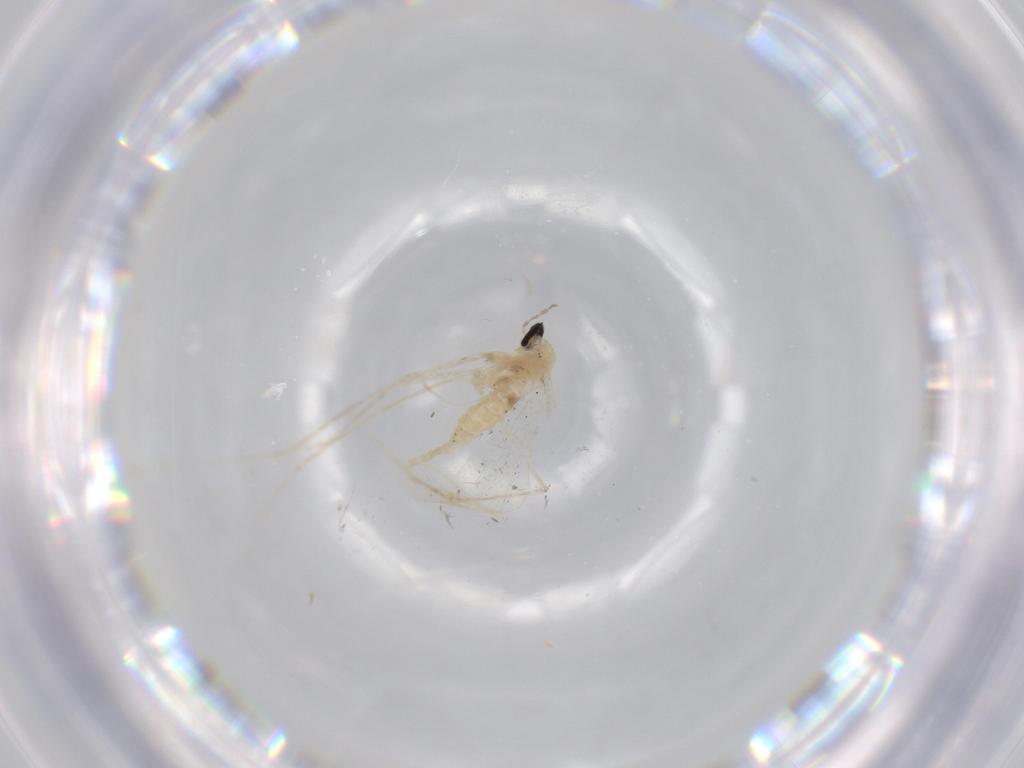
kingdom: Animalia
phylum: Arthropoda
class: Insecta
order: Diptera
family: Cecidomyiidae
